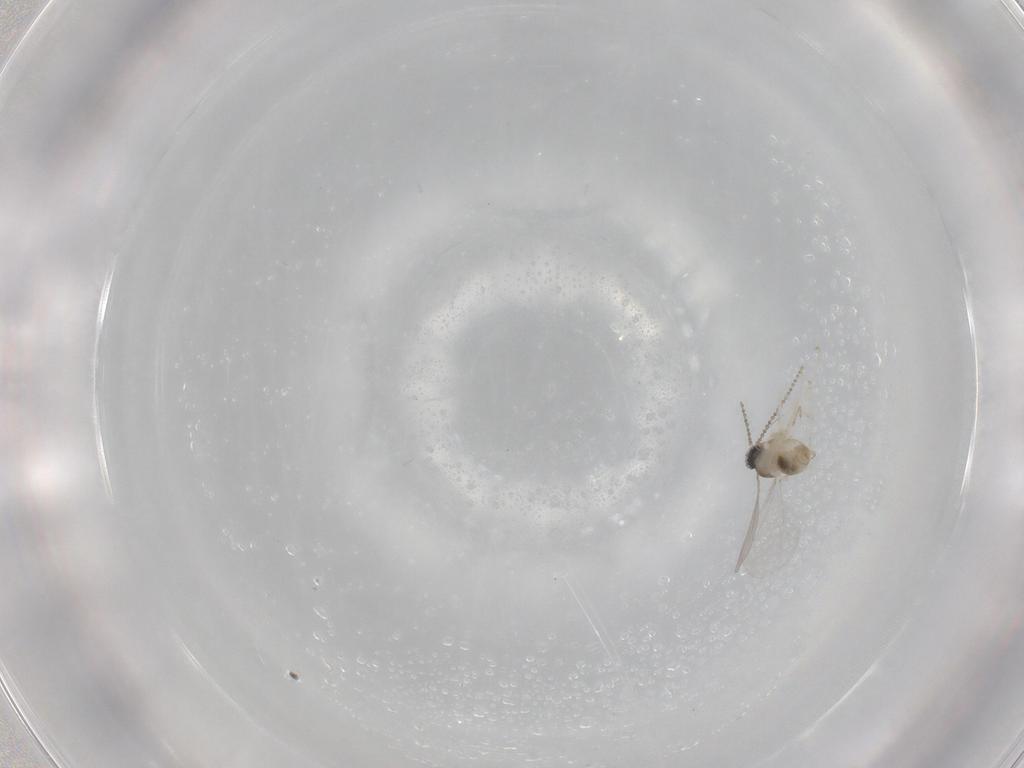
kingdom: Animalia
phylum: Arthropoda
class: Insecta
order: Diptera
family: Cecidomyiidae
